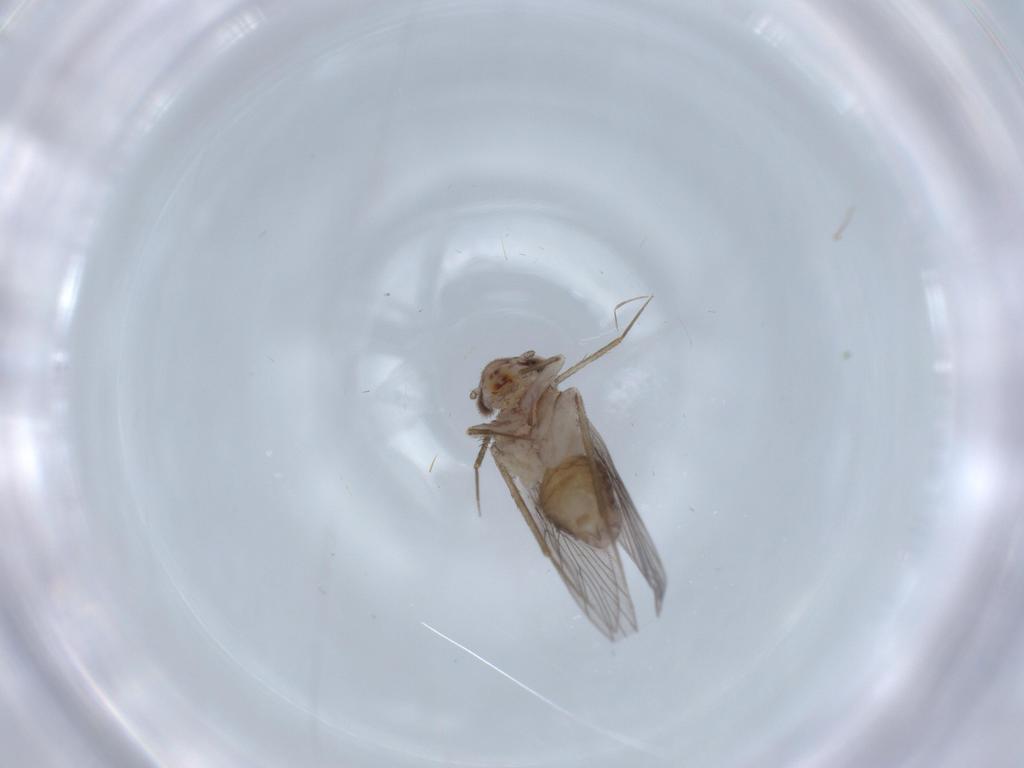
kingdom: Animalia
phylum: Arthropoda
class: Insecta
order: Psocodea
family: Lepidopsocidae
